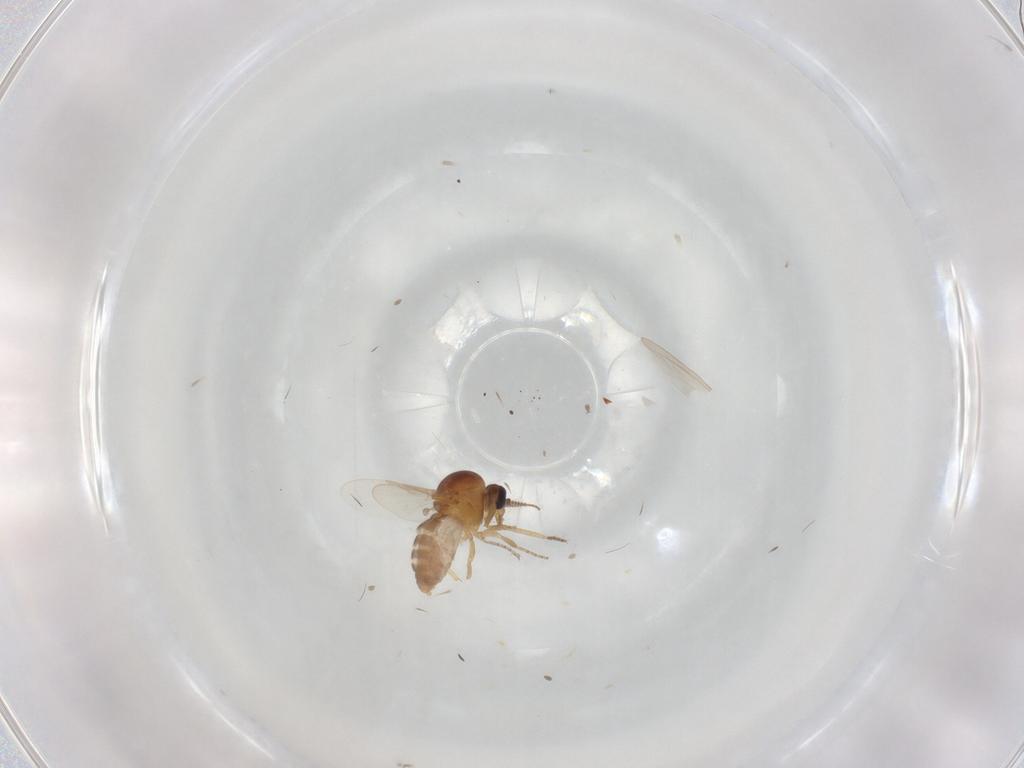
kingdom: Animalia
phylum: Arthropoda
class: Insecta
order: Diptera
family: Ceratopogonidae
